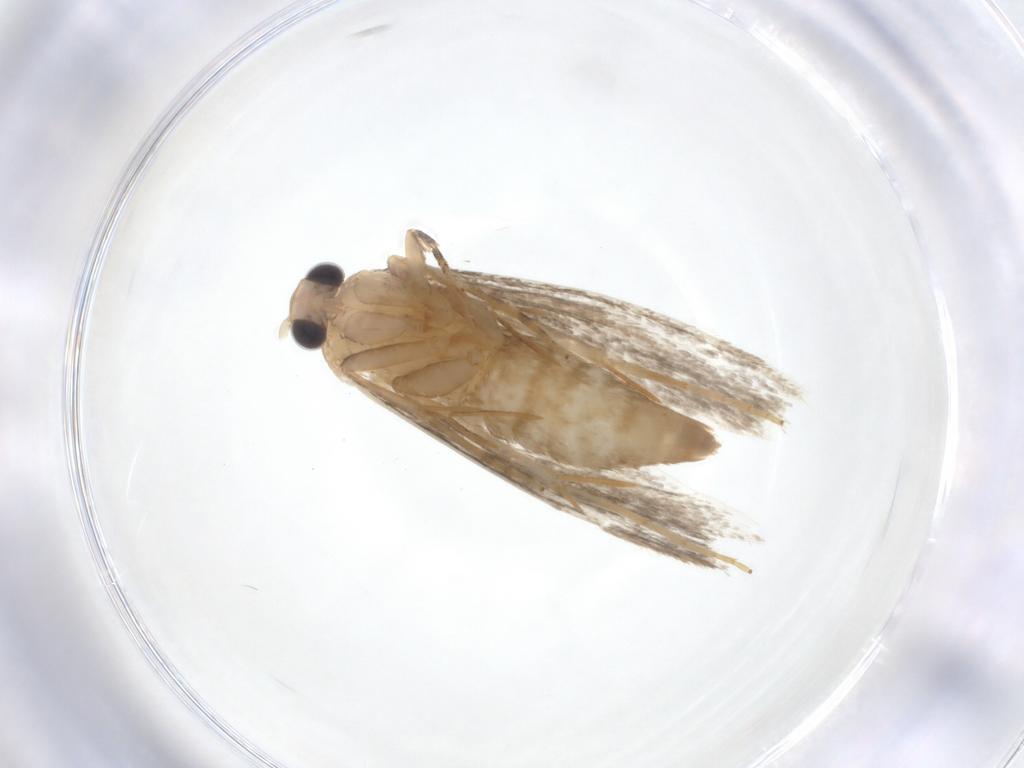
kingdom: Animalia
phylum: Arthropoda
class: Insecta
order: Lepidoptera
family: Tineidae
